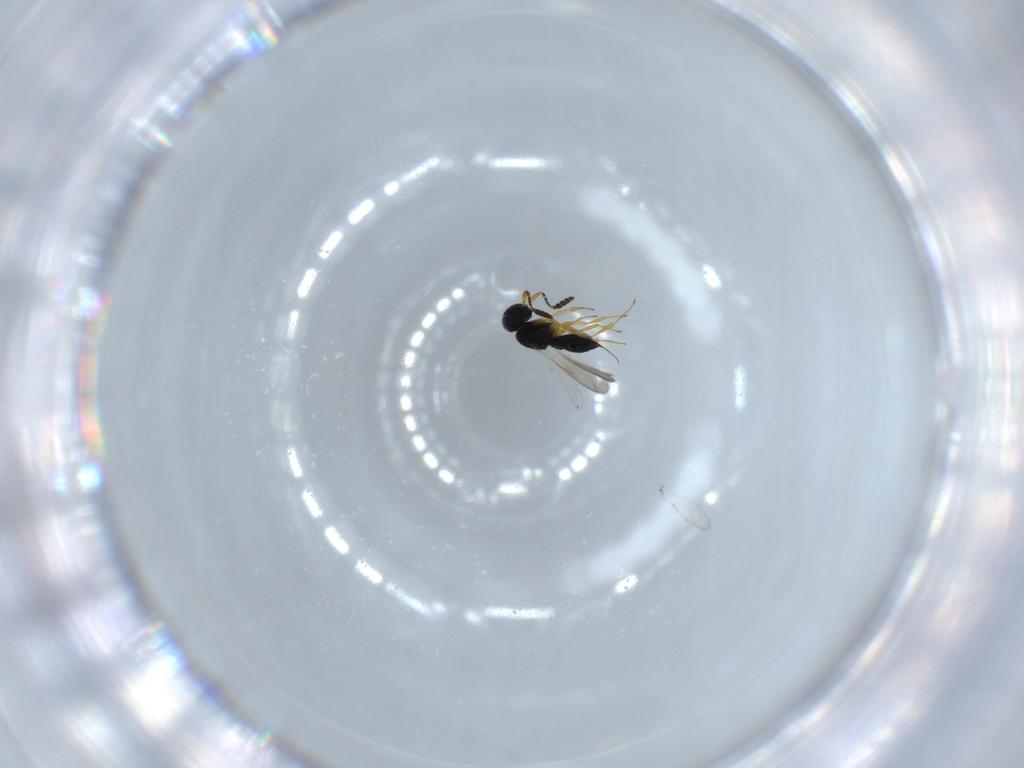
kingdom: Animalia
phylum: Arthropoda
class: Insecta
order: Hymenoptera
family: Scelionidae
